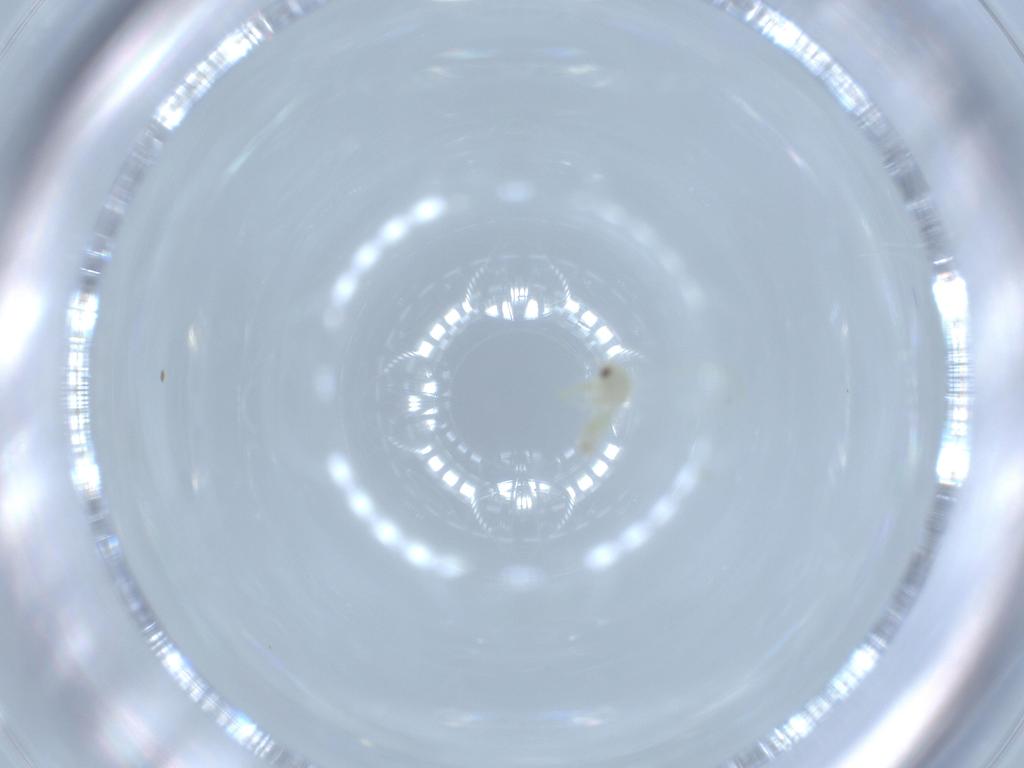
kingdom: Animalia
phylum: Arthropoda
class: Insecta
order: Hemiptera
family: Aleyrodidae
